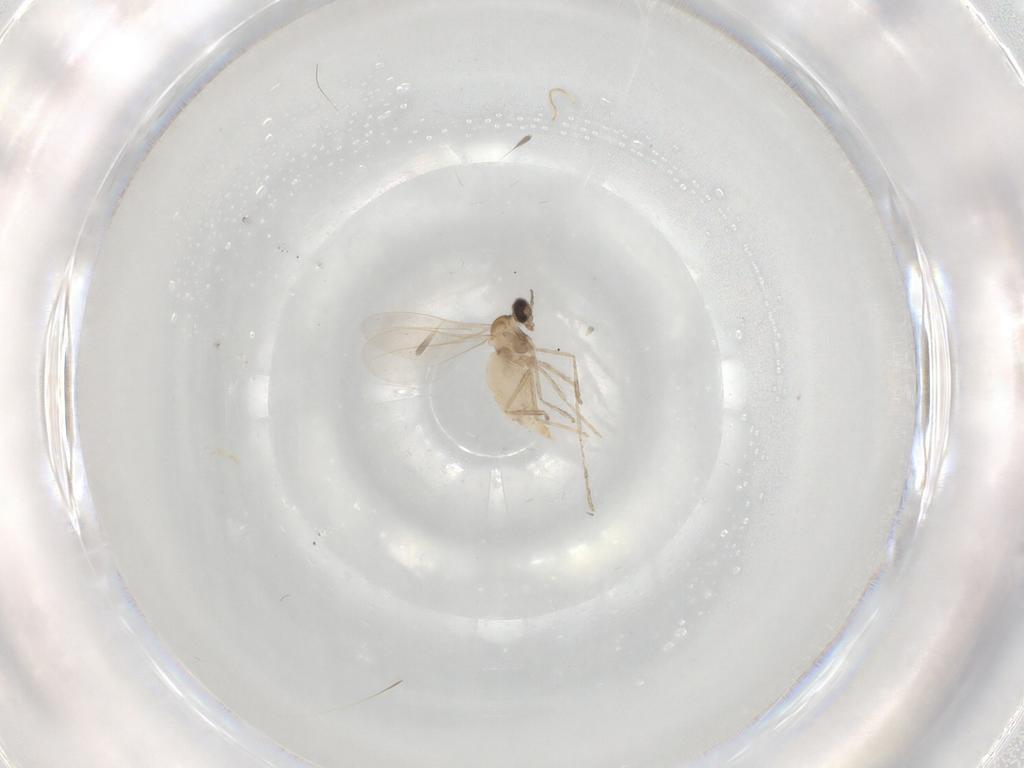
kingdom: Animalia
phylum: Arthropoda
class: Insecta
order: Diptera
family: Cecidomyiidae
